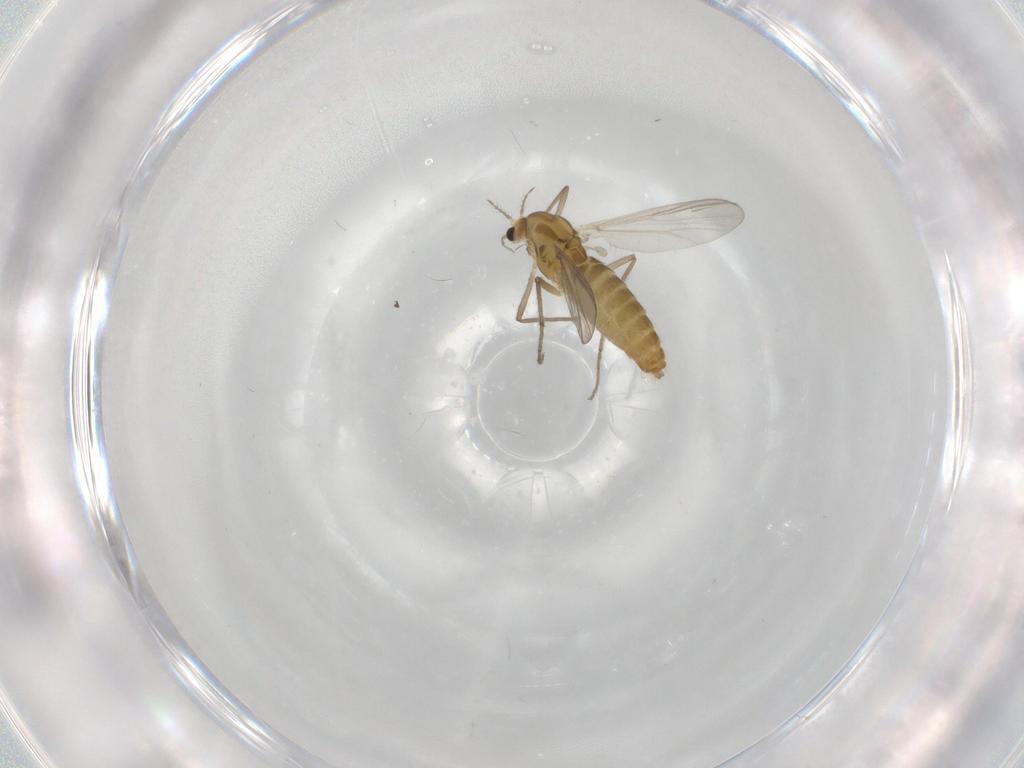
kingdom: Animalia
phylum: Arthropoda
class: Insecta
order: Diptera
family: Chironomidae
